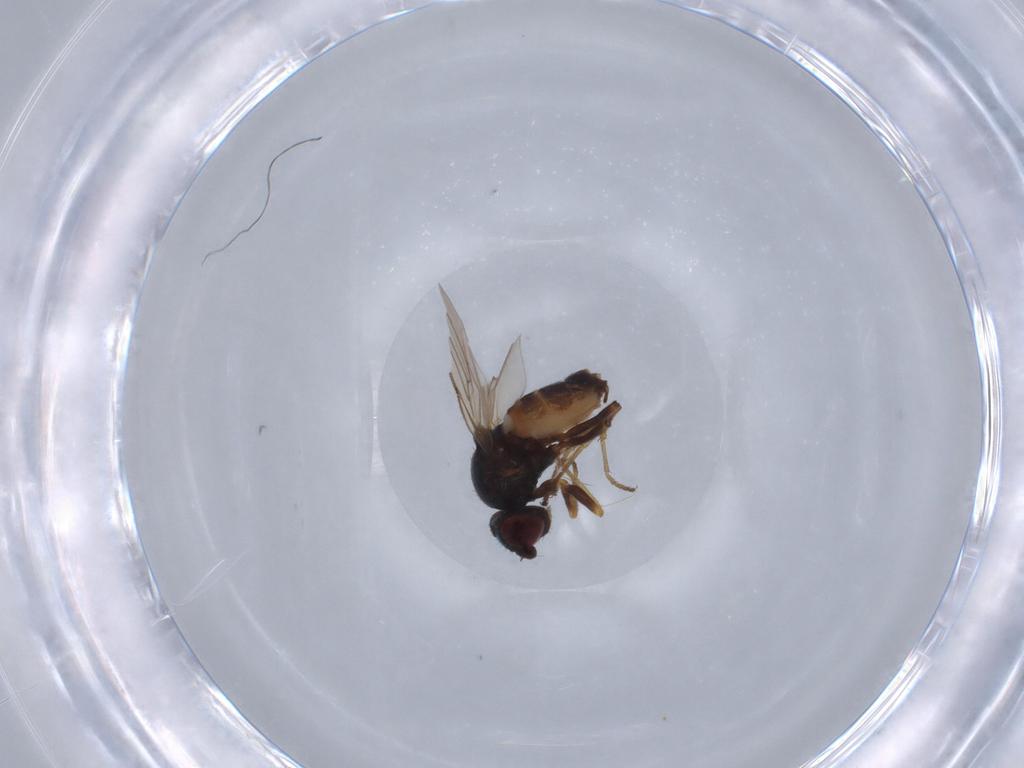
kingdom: Animalia
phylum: Arthropoda
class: Insecta
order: Diptera
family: Chloropidae
